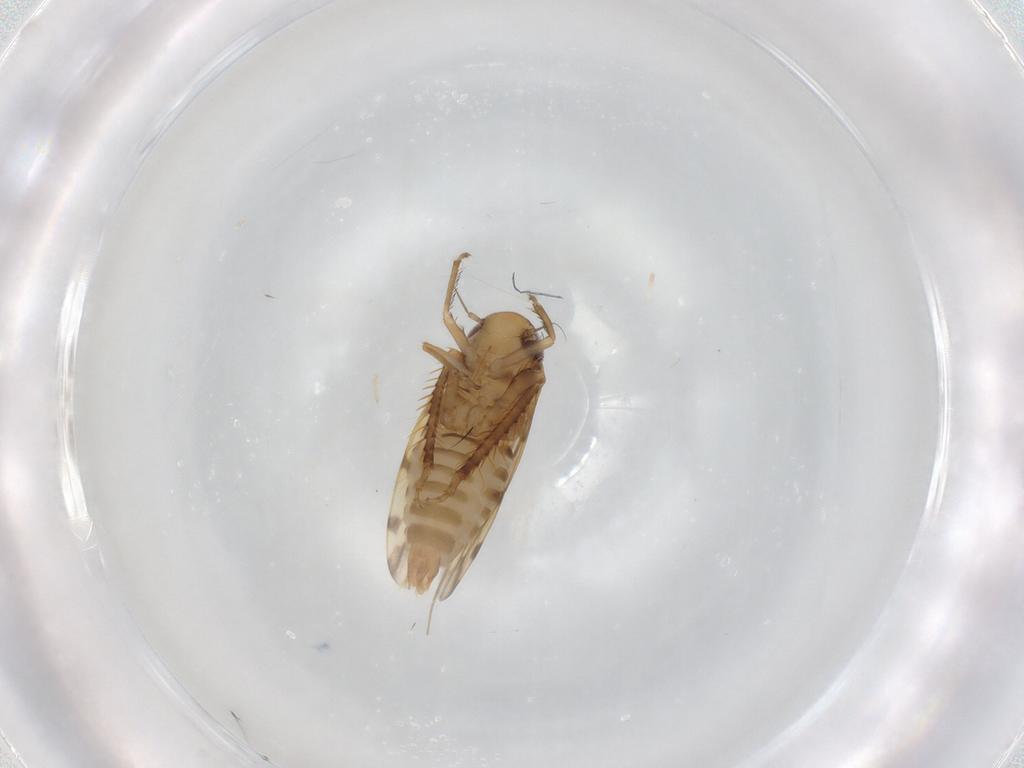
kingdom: Animalia
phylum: Arthropoda
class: Insecta
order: Hemiptera
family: Cicadellidae
